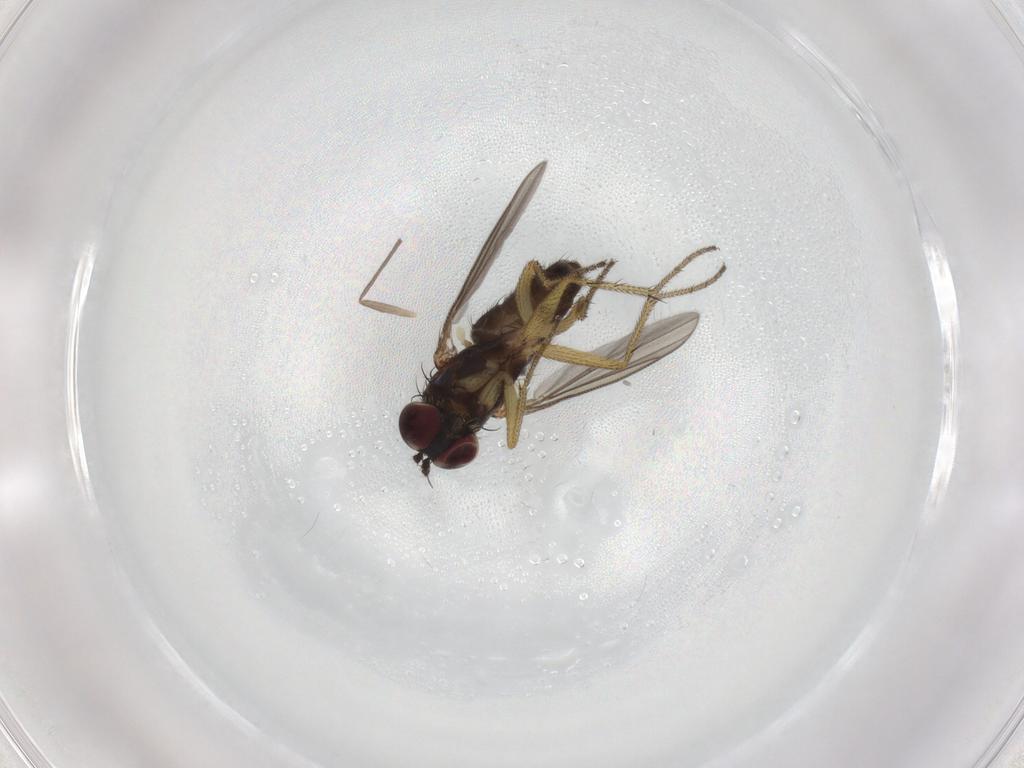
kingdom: Animalia
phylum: Arthropoda
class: Insecta
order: Diptera
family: Chironomidae
